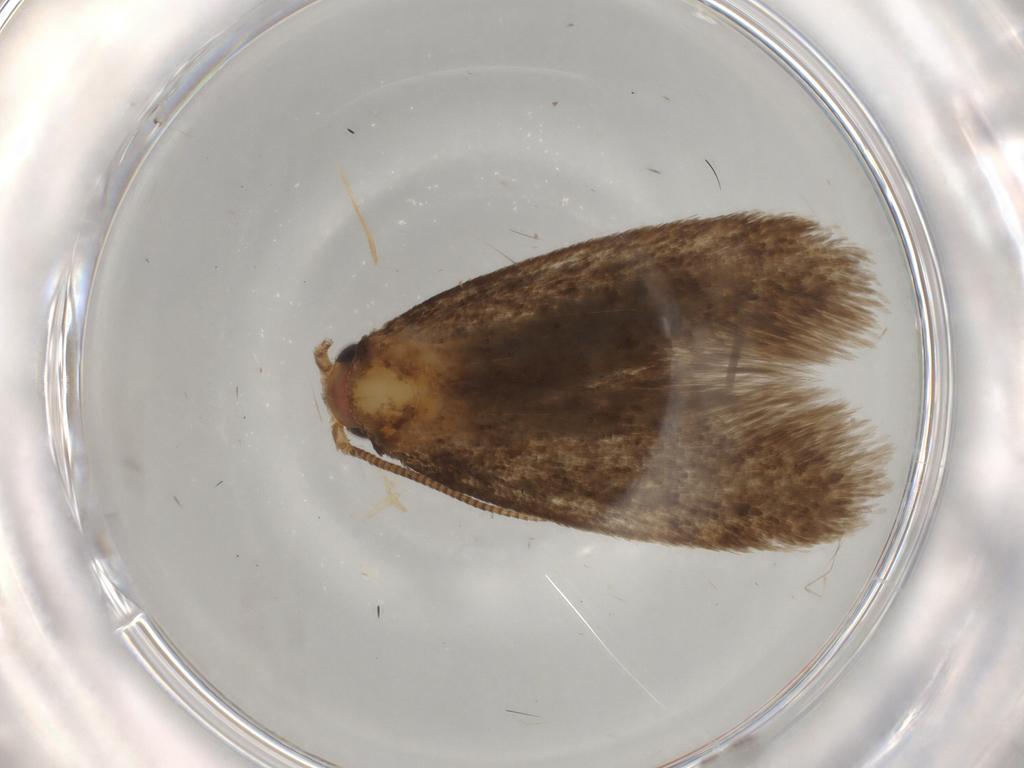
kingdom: Animalia
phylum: Arthropoda
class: Insecta
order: Lepidoptera
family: Tineidae
